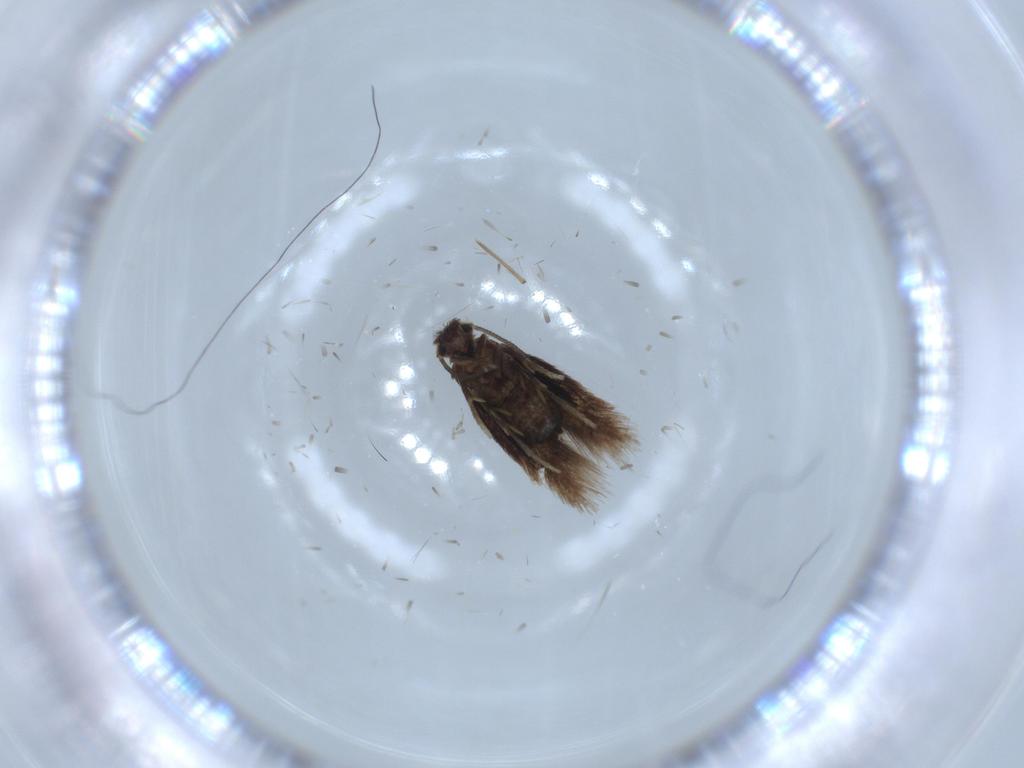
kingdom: Animalia
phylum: Arthropoda
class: Insecta
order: Lepidoptera
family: Nepticulidae
